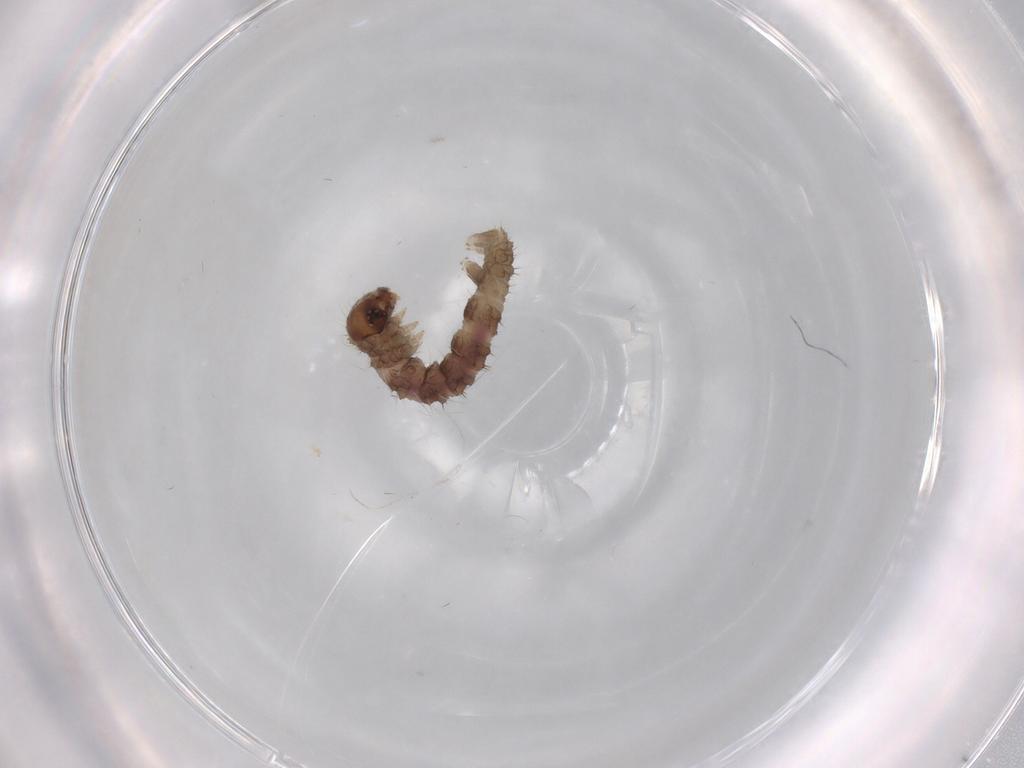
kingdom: Animalia
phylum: Arthropoda
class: Insecta
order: Lepidoptera
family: Geometridae
